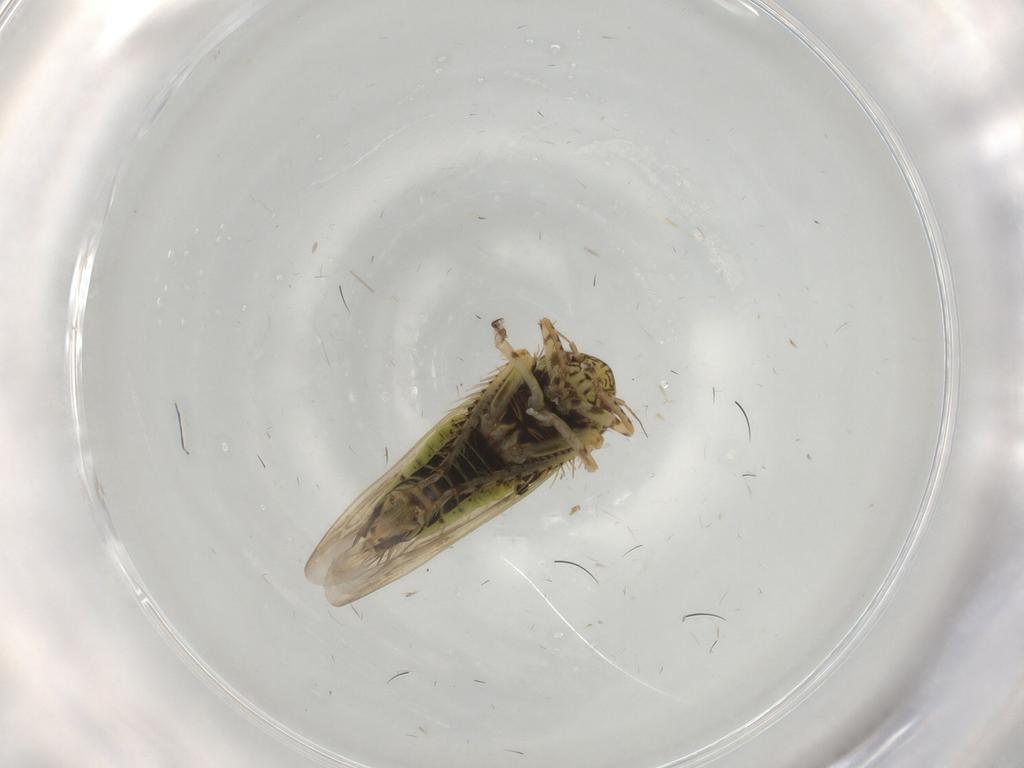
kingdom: Animalia
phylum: Arthropoda
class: Insecta
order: Hemiptera
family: Cicadellidae
